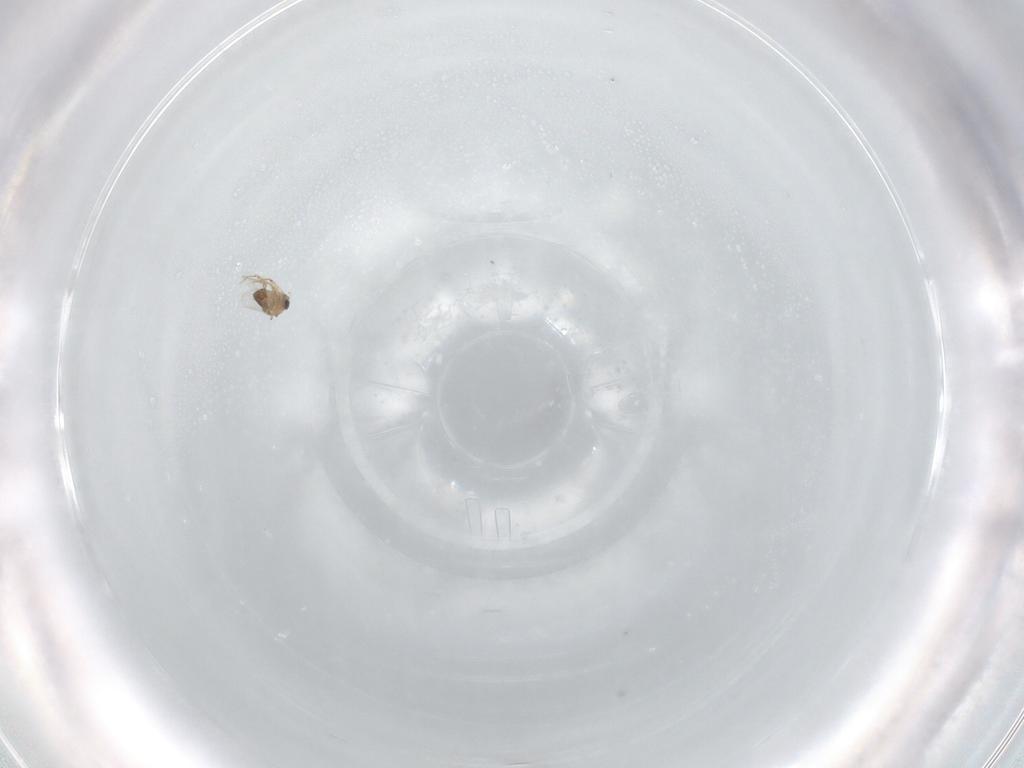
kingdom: Animalia
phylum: Arthropoda
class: Insecta
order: Diptera
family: Chironomidae
